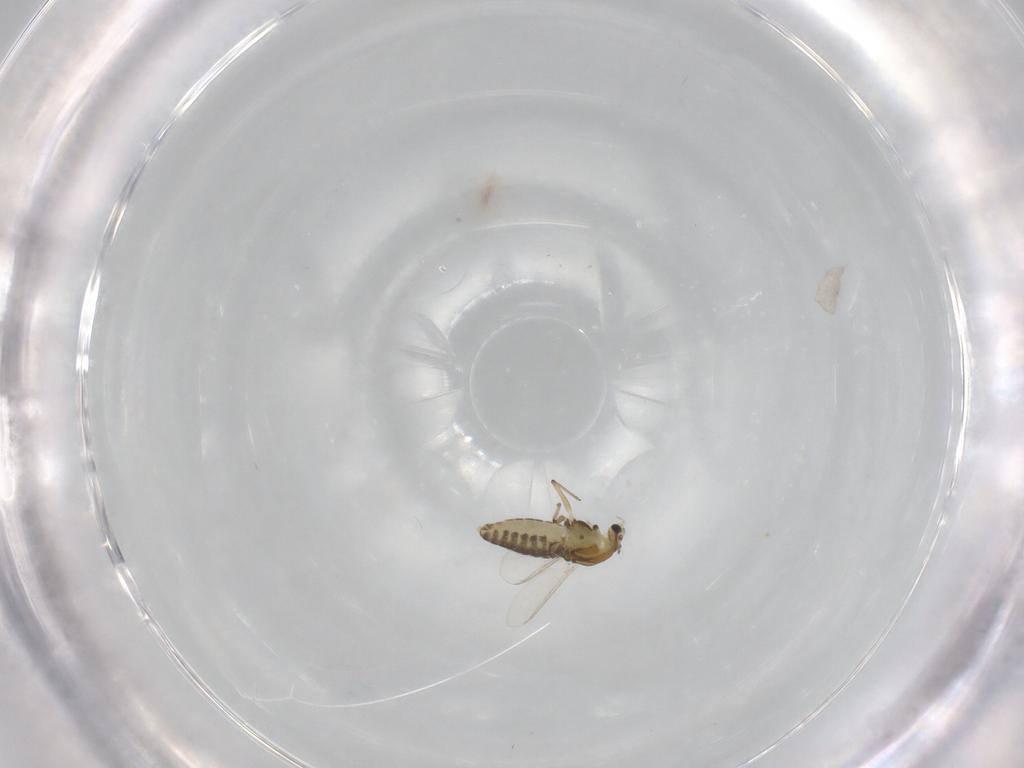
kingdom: Animalia
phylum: Arthropoda
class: Insecta
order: Diptera
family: Chironomidae
